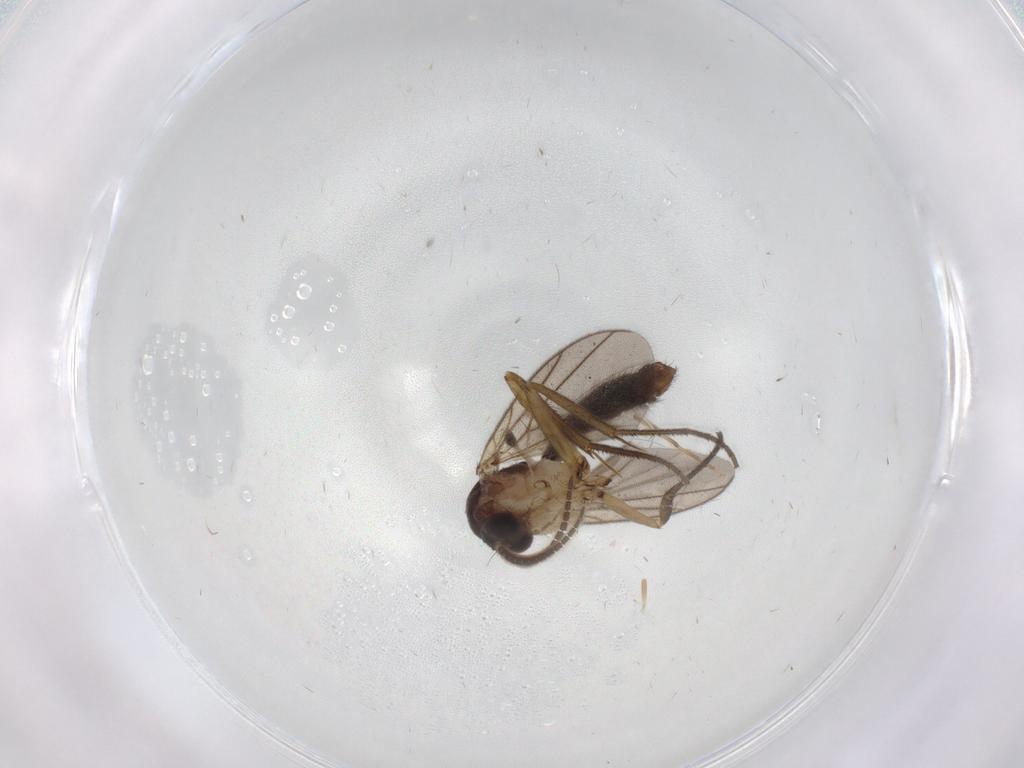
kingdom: Animalia
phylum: Arthropoda
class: Insecta
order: Diptera
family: Mycetophilidae
